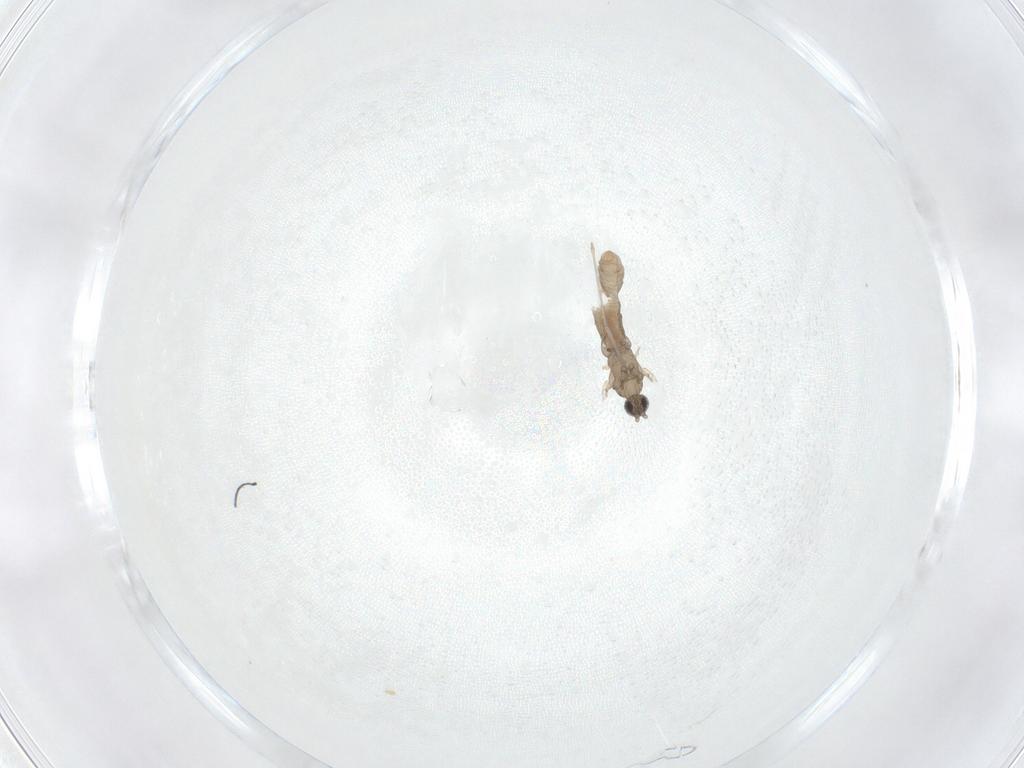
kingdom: Animalia
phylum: Arthropoda
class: Insecta
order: Diptera
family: Cecidomyiidae
